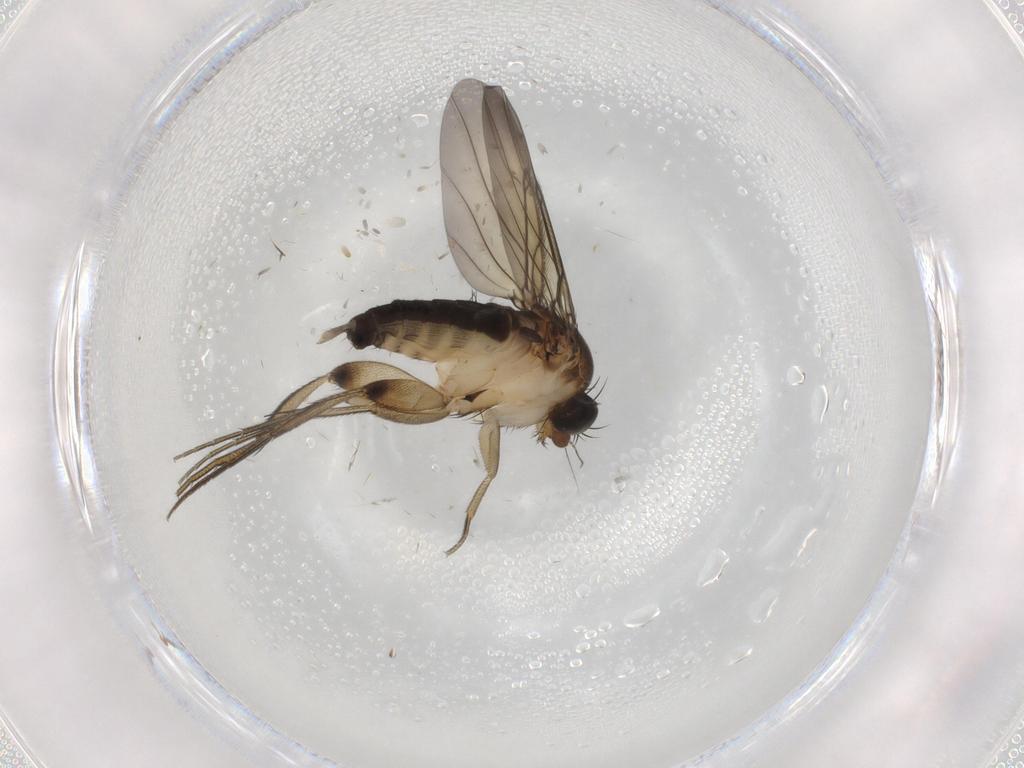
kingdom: Animalia
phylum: Arthropoda
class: Insecta
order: Diptera
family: Phoridae
